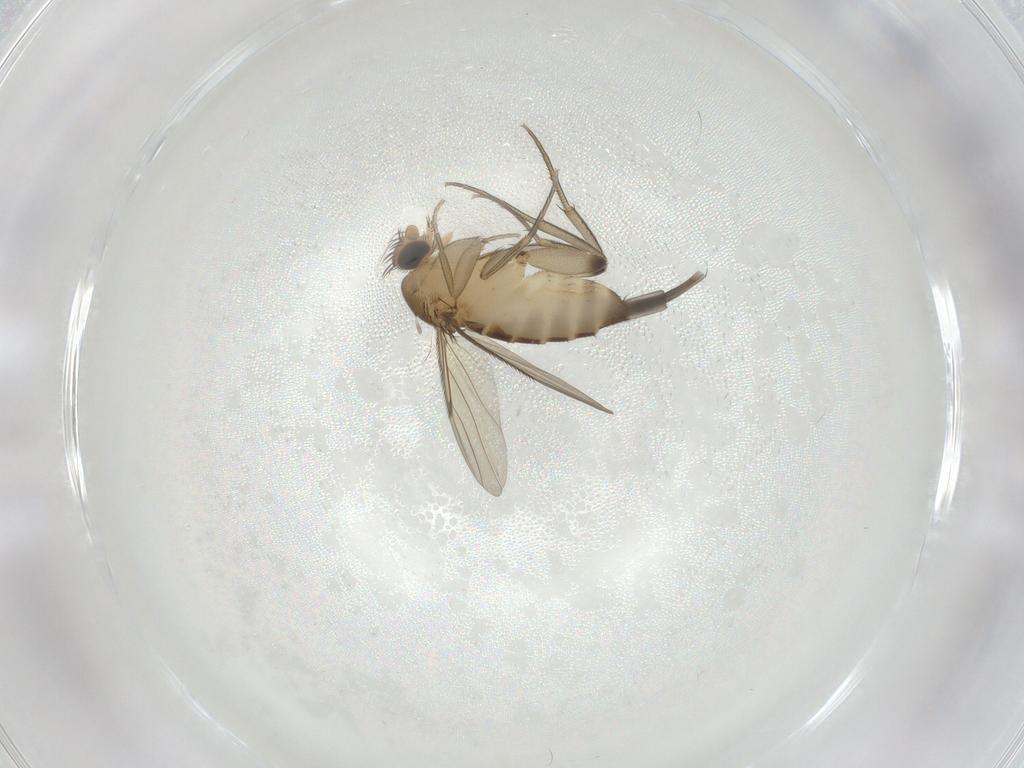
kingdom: Animalia
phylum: Arthropoda
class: Insecta
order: Diptera
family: Phoridae
